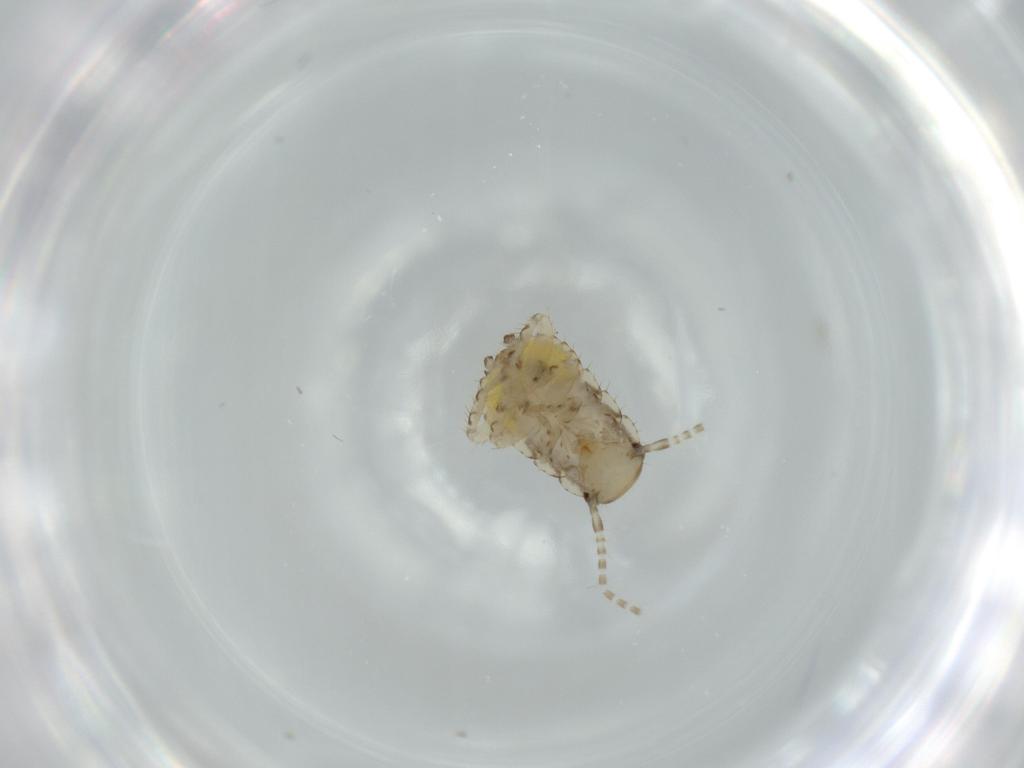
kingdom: Animalia
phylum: Arthropoda
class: Insecta
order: Blattodea
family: Ectobiidae
